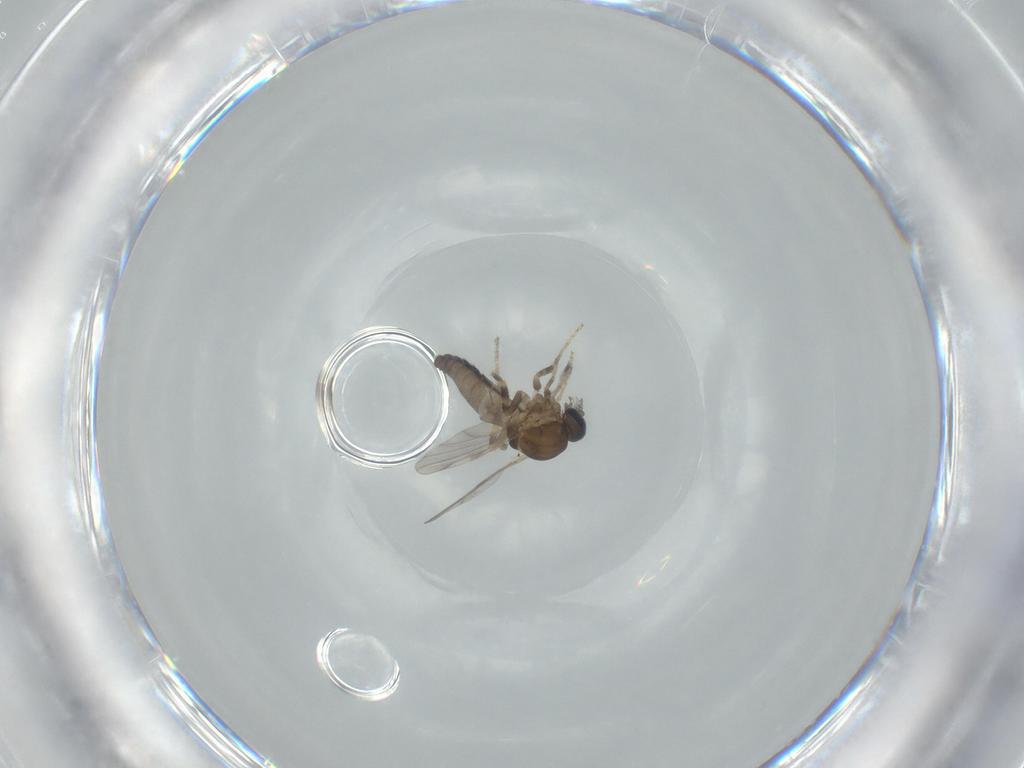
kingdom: Animalia
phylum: Arthropoda
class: Insecta
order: Diptera
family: Ceratopogonidae
